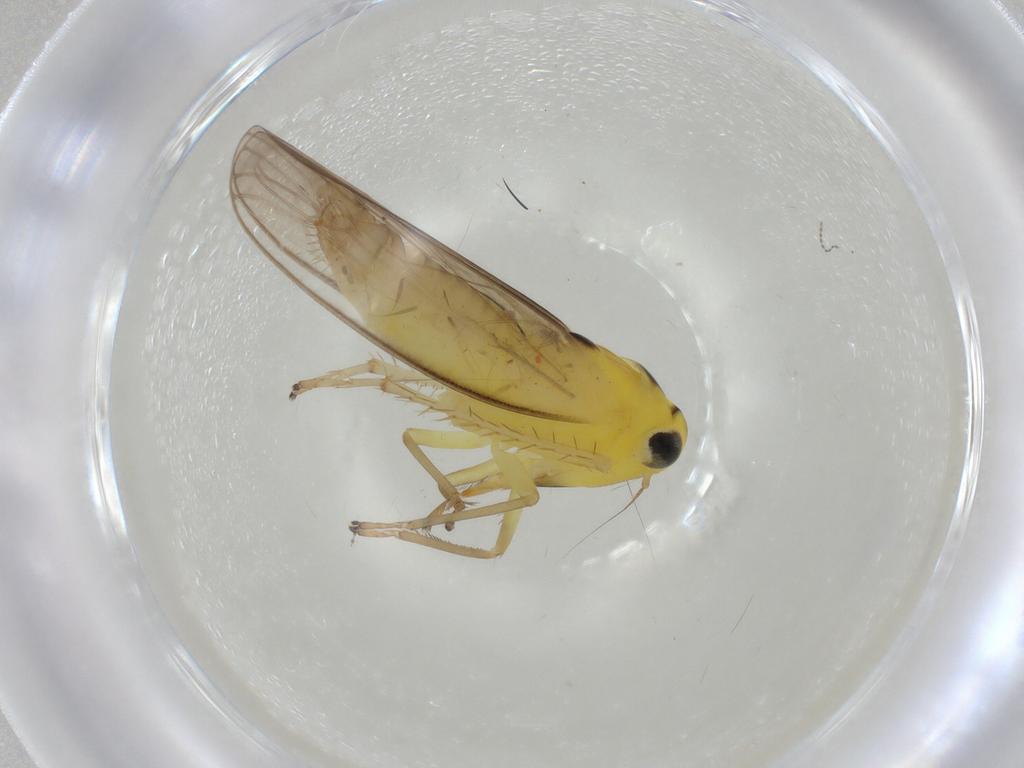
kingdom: Animalia
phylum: Arthropoda
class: Insecta
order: Hemiptera
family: Cicadellidae
